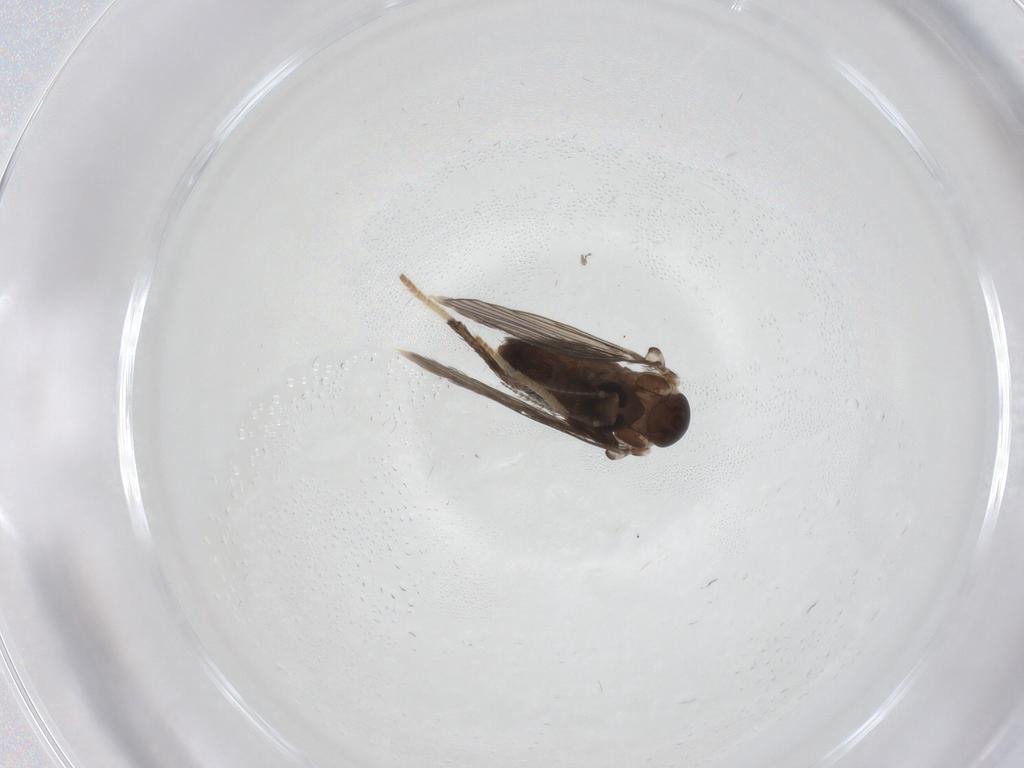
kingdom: Animalia
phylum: Arthropoda
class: Insecta
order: Diptera
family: Psychodidae
